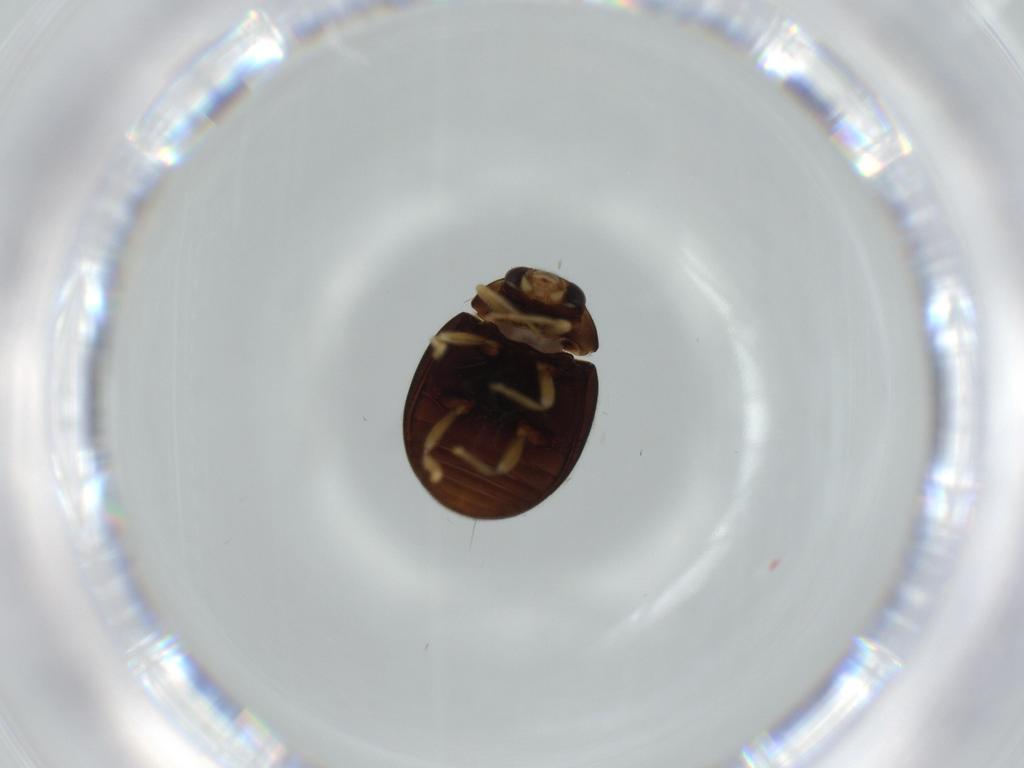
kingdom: Animalia
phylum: Arthropoda
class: Insecta
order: Coleoptera
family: Coccinellidae
